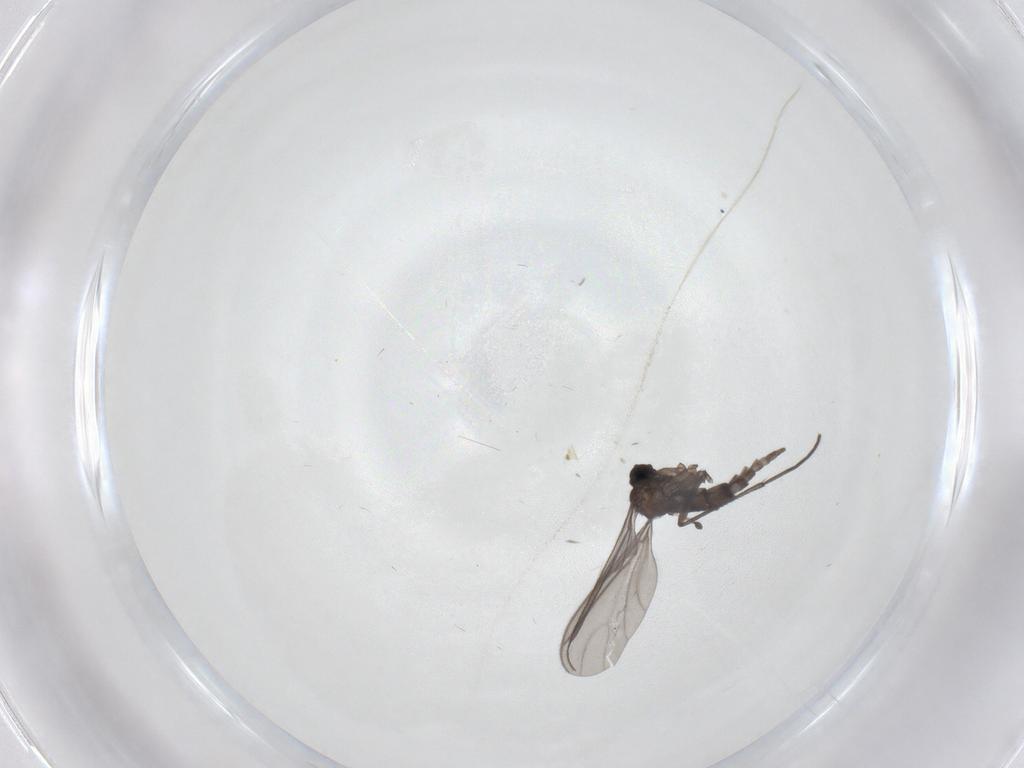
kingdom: Animalia
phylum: Arthropoda
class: Insecta
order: Diptera
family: Sciaridae
